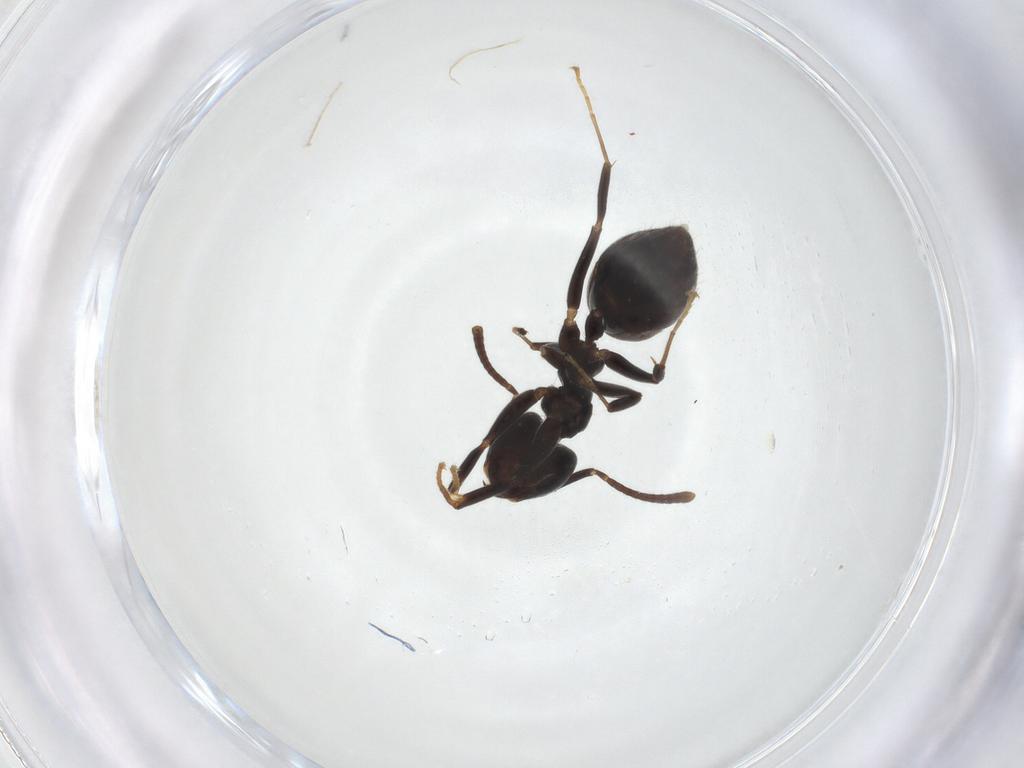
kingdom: Animalia
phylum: Arthropoda
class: Insecta
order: Hymenoptera
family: Formicidae
